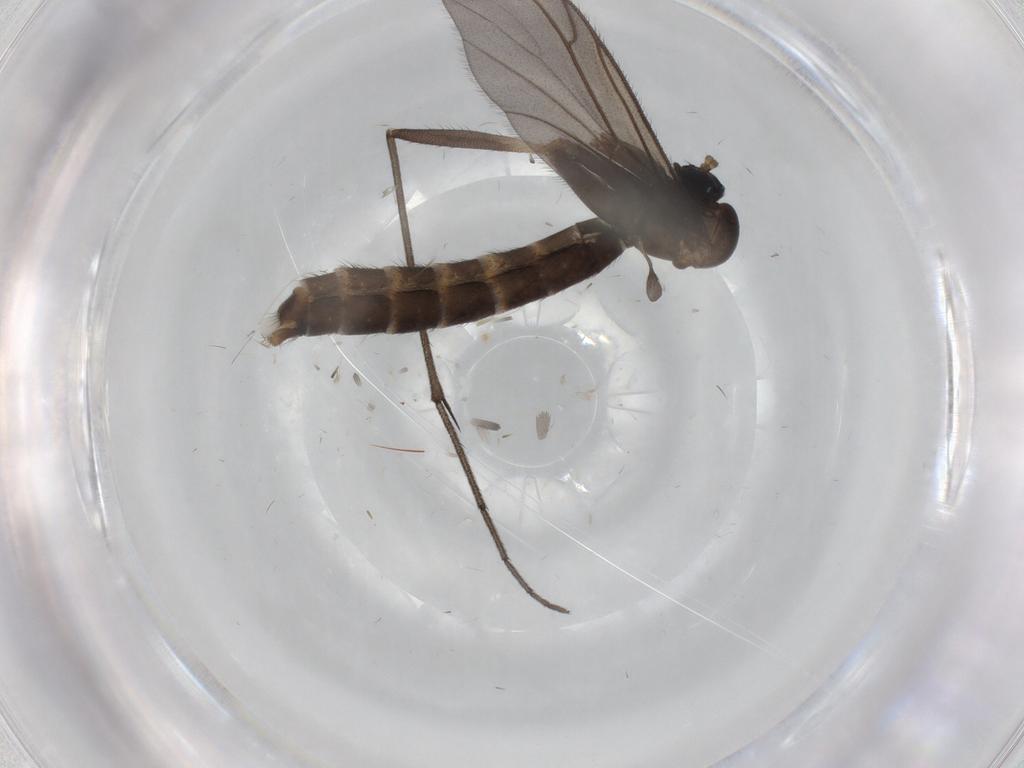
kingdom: Animalia
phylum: Arthropoda
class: Insecta
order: Diptera
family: Ditomyiidae
